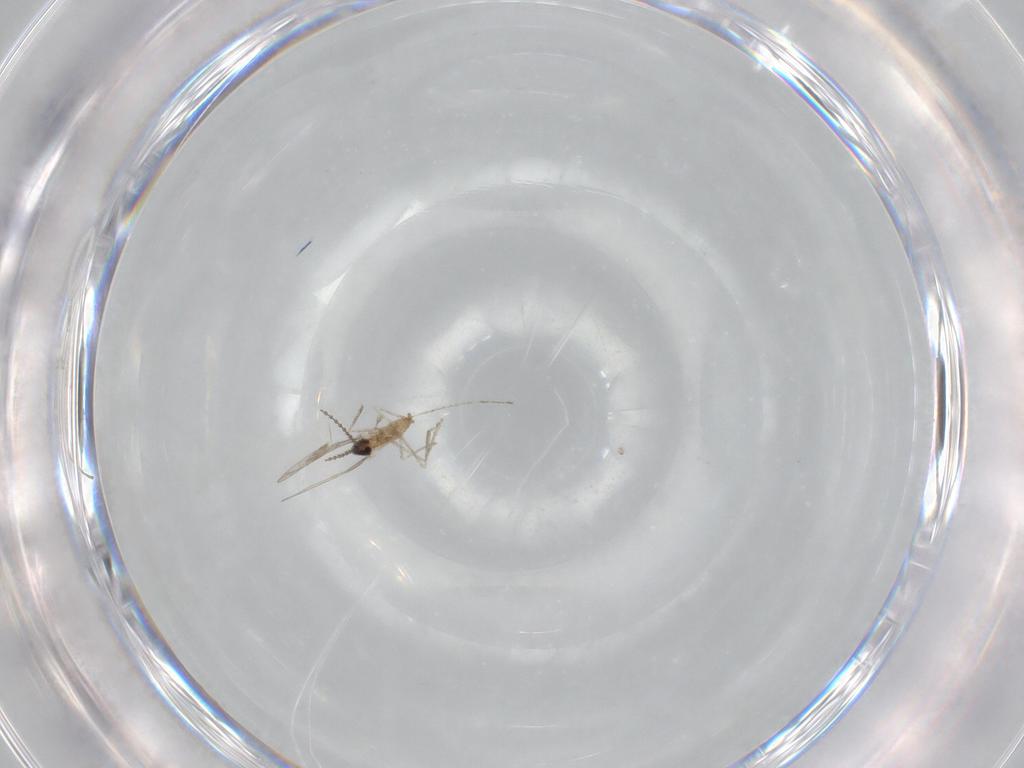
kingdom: Animalia
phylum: Arthropoda
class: Insecta
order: Diptera
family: Cecidomyiidae
